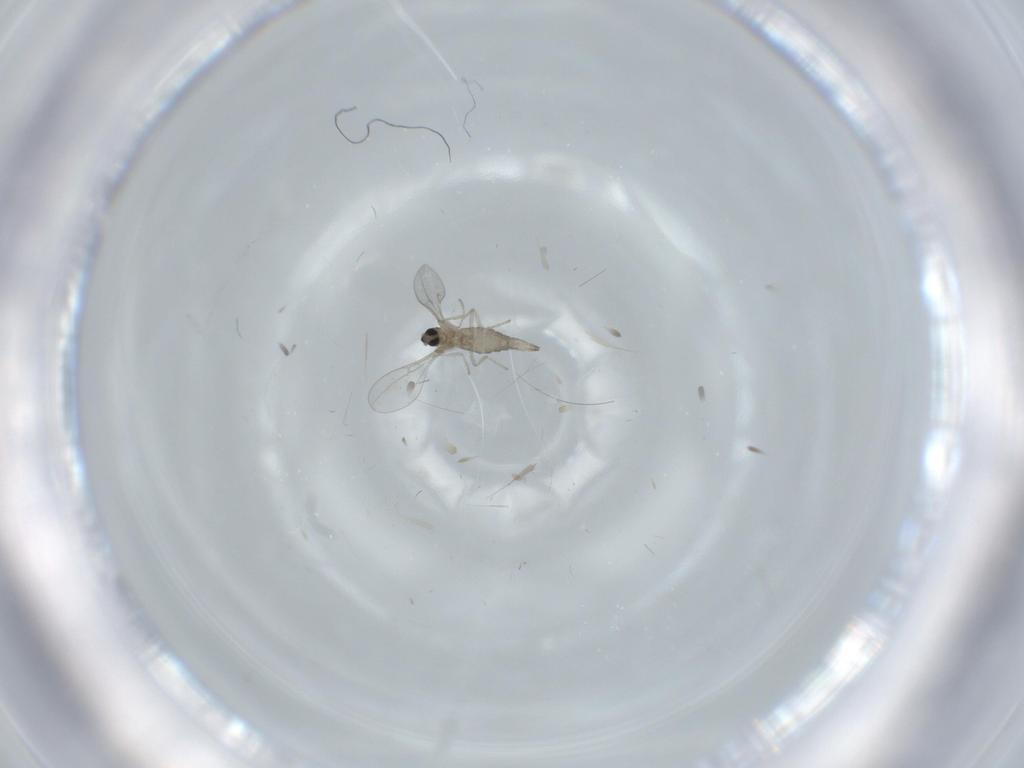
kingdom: Animalia
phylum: Arthropoda
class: Insecta
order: Diptera
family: Cecidomyiidae
